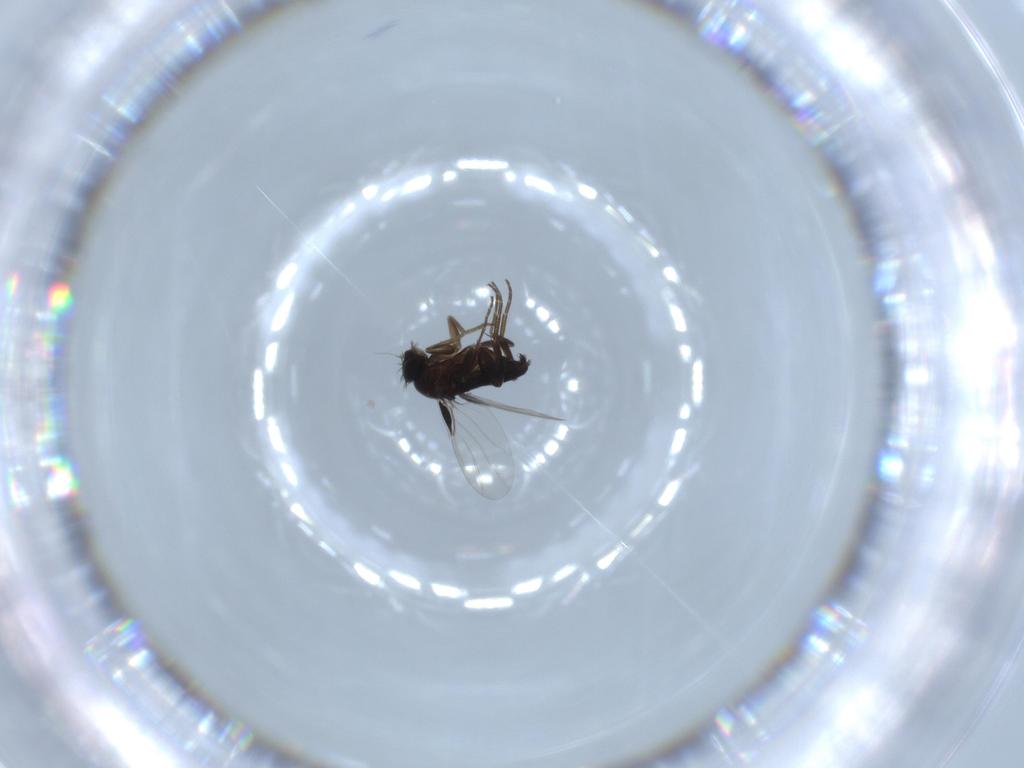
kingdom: Animalia
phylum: Arthropoda
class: Insecta
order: Diptera
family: Phoridae
